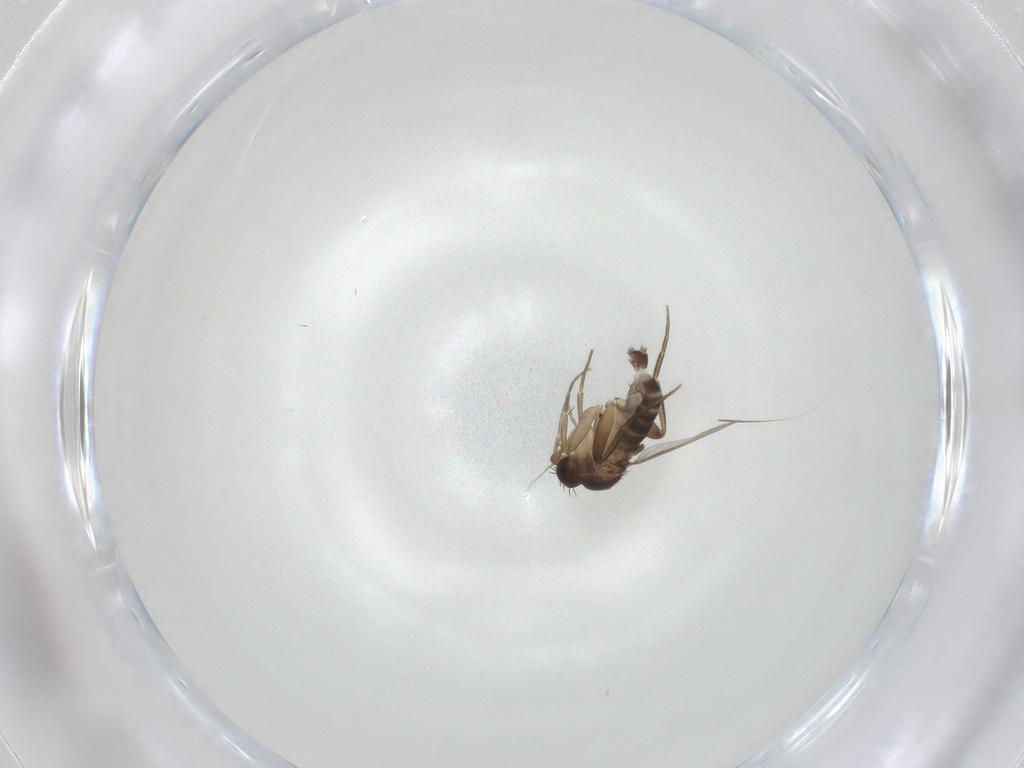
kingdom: Animalia
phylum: Arthropoda
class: Insecta
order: Diptera
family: Phoridae
